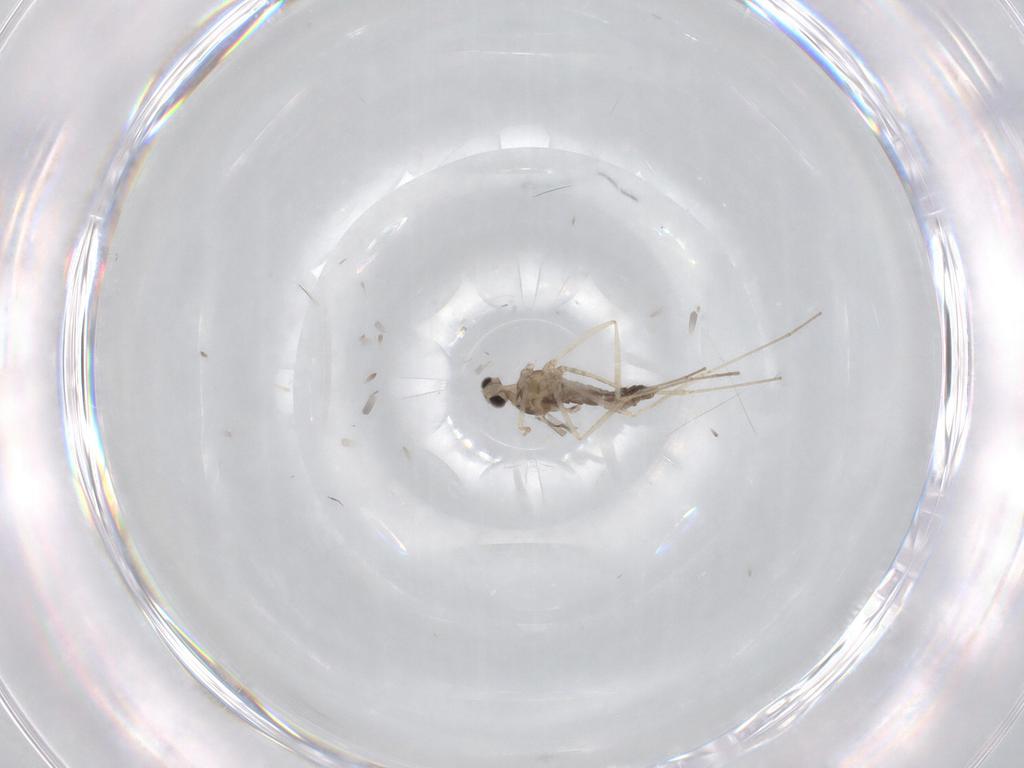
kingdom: Animalia
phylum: Arthropoda
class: Insecta
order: Diptera
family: Cecidomyiidae
